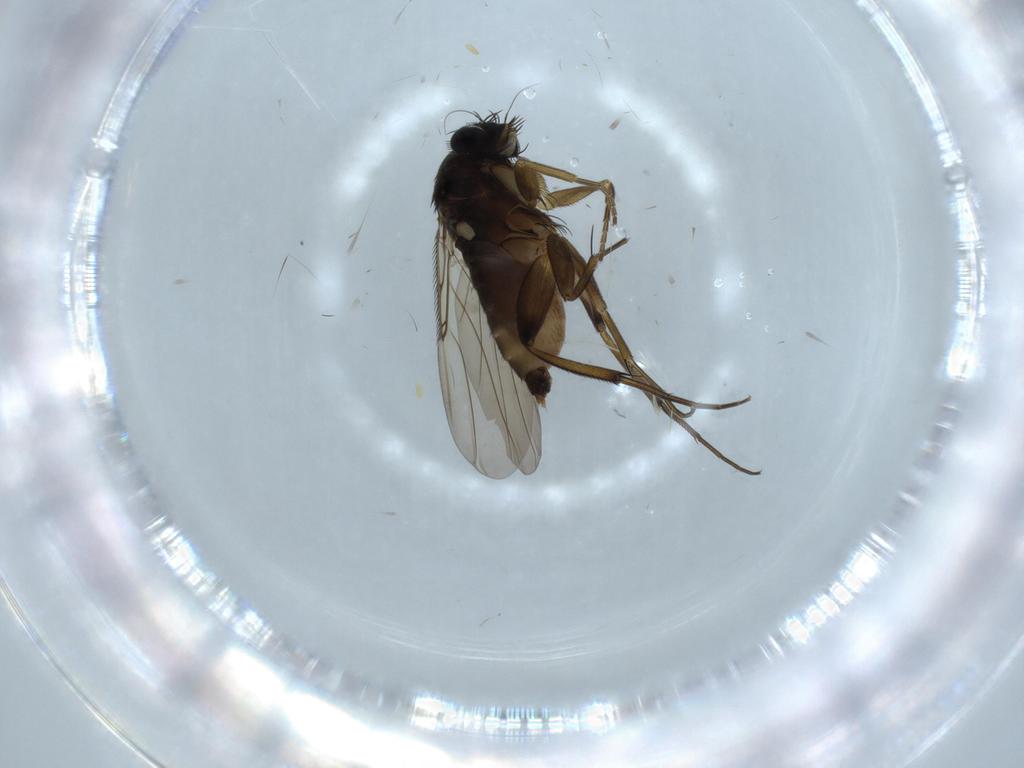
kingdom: Animalia
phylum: Arthropoda
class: Insecta
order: Diptera
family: Phoridae
